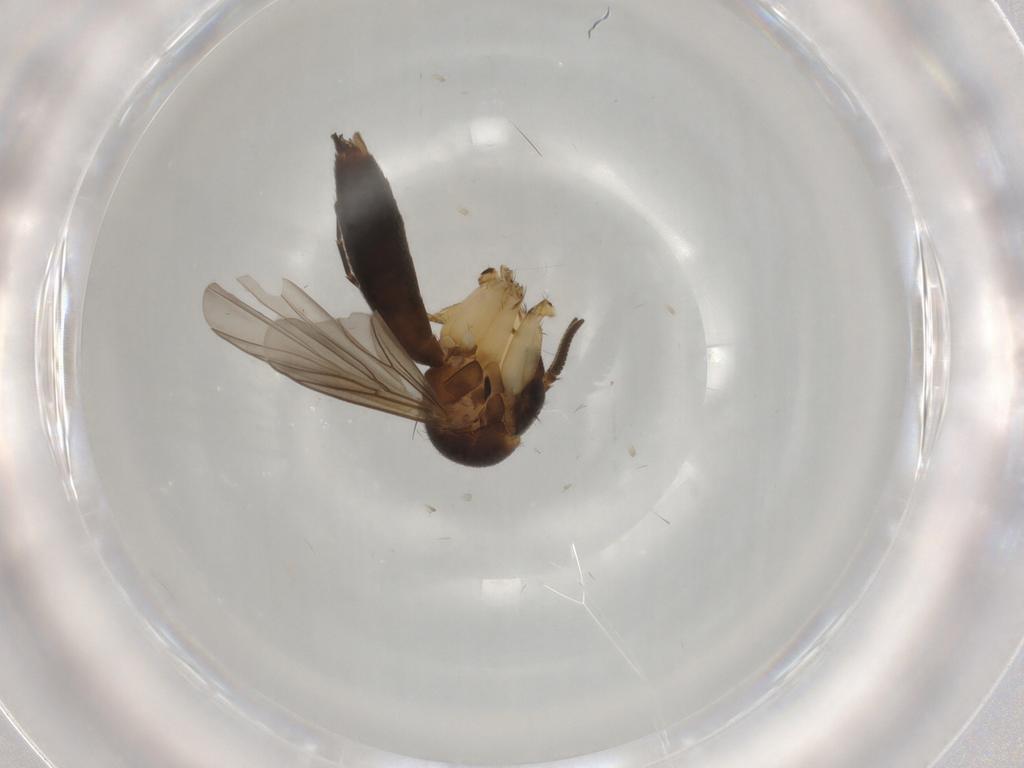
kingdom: Animalia
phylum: Arthropoda
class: Insecta
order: Diptera
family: Mycetophilidae
